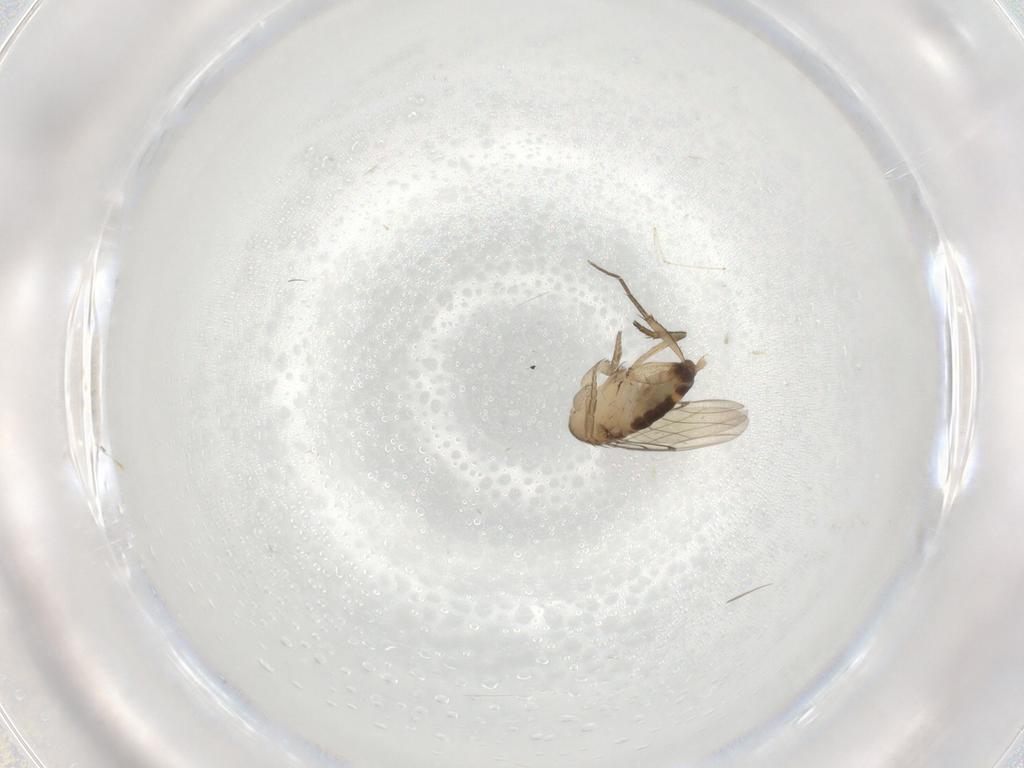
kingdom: Animalia
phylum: Arthropoda
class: Insecta
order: Diptera
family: Cecidomyiidae
